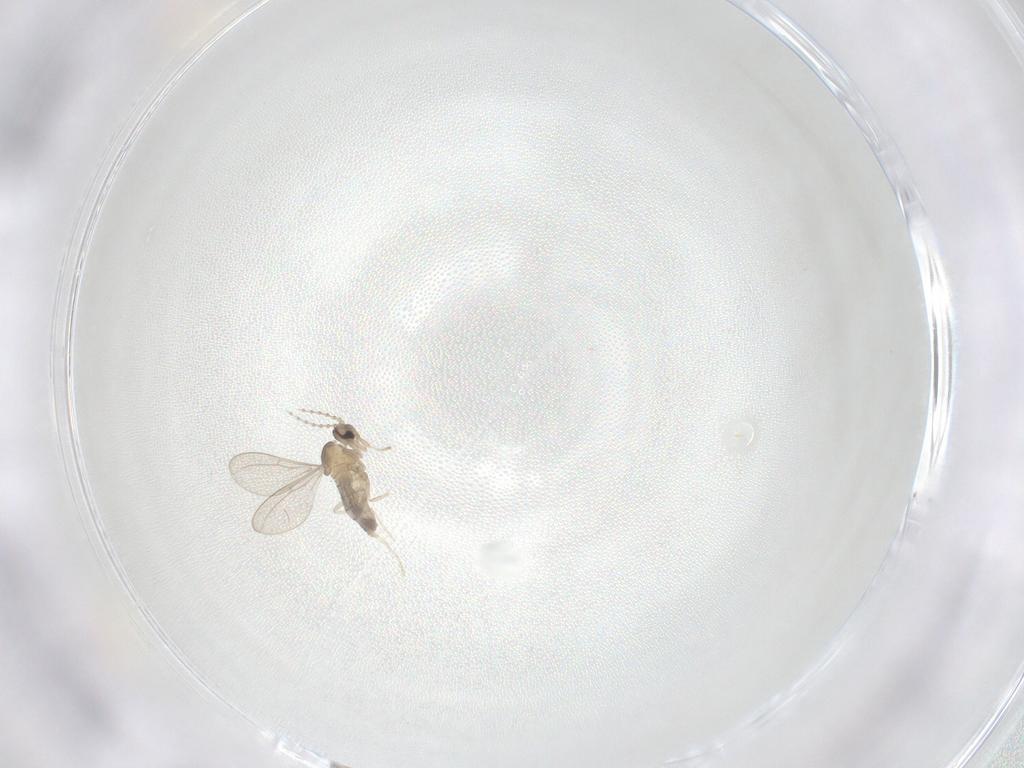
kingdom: Animalia
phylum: Arthropoda
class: Insecta
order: Diptera
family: Cecidomyiidae
